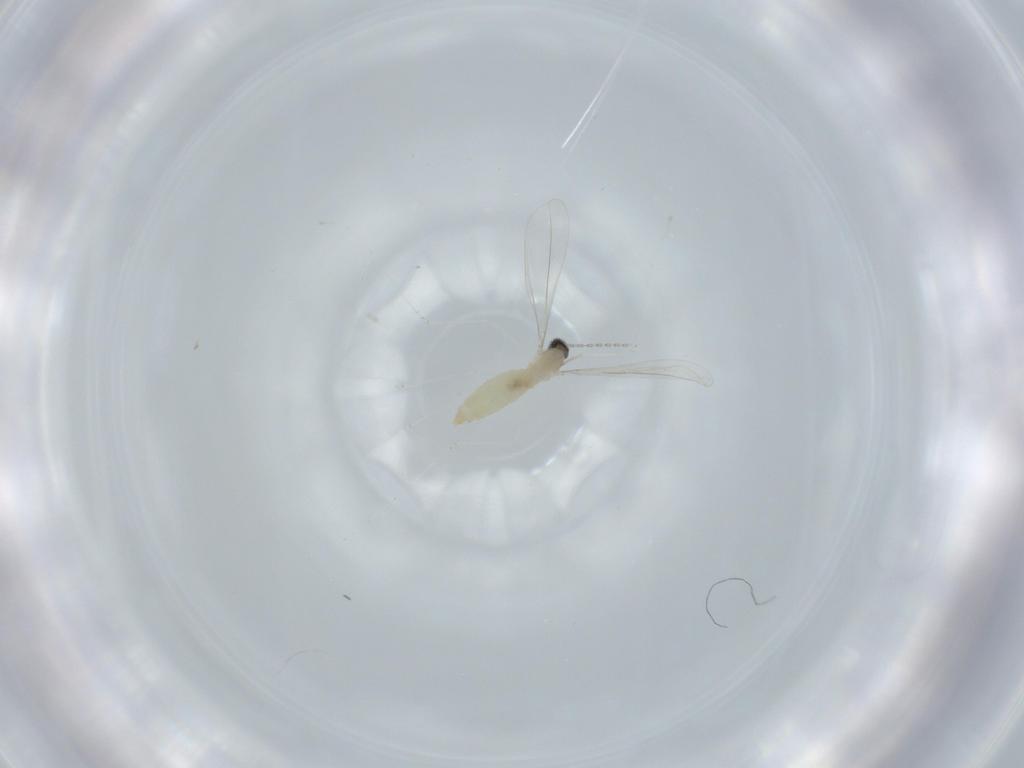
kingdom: Animalia
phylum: Arthropoda
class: Insecta
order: Diptera
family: Cecidomyiidae
